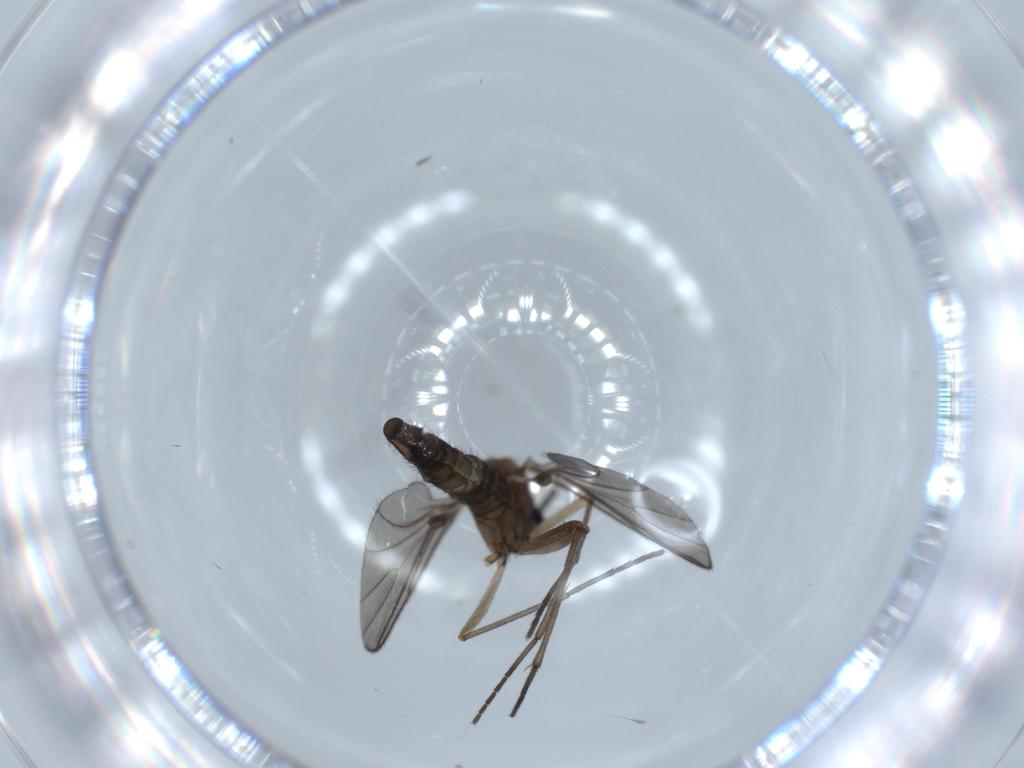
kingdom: Animalia
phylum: Arthropoda
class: Insecta
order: Diptera
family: Sciaridae
